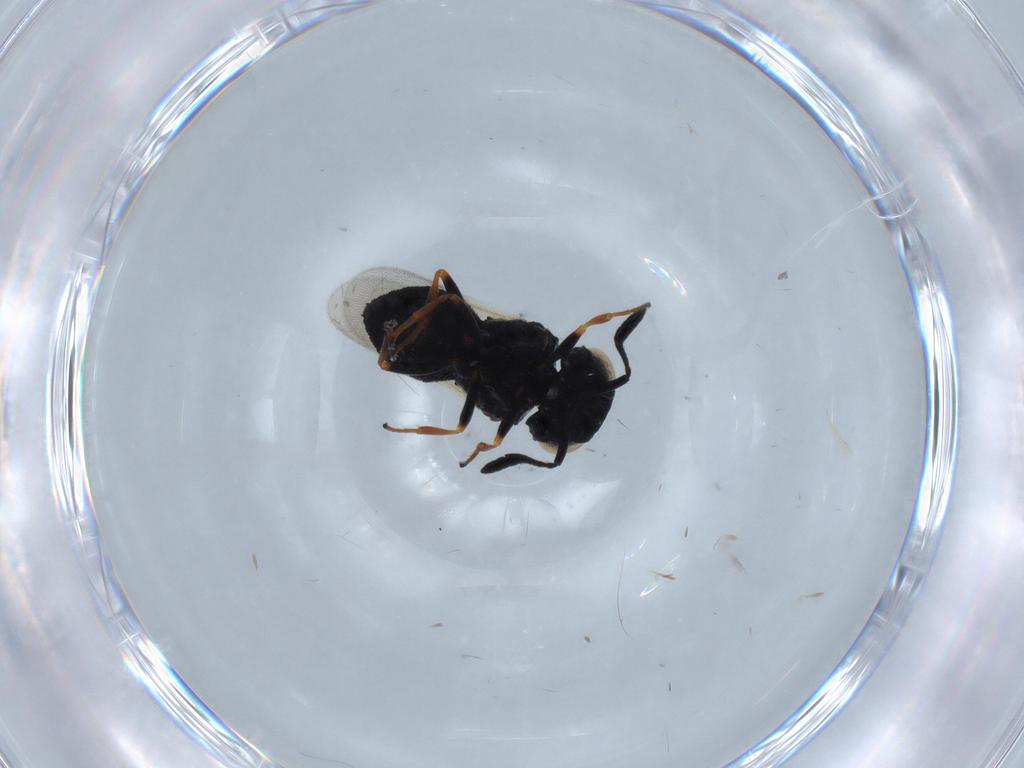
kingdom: Animalia
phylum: Arthropoda
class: Insecta
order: Hymenoptera
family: Scelionidae
